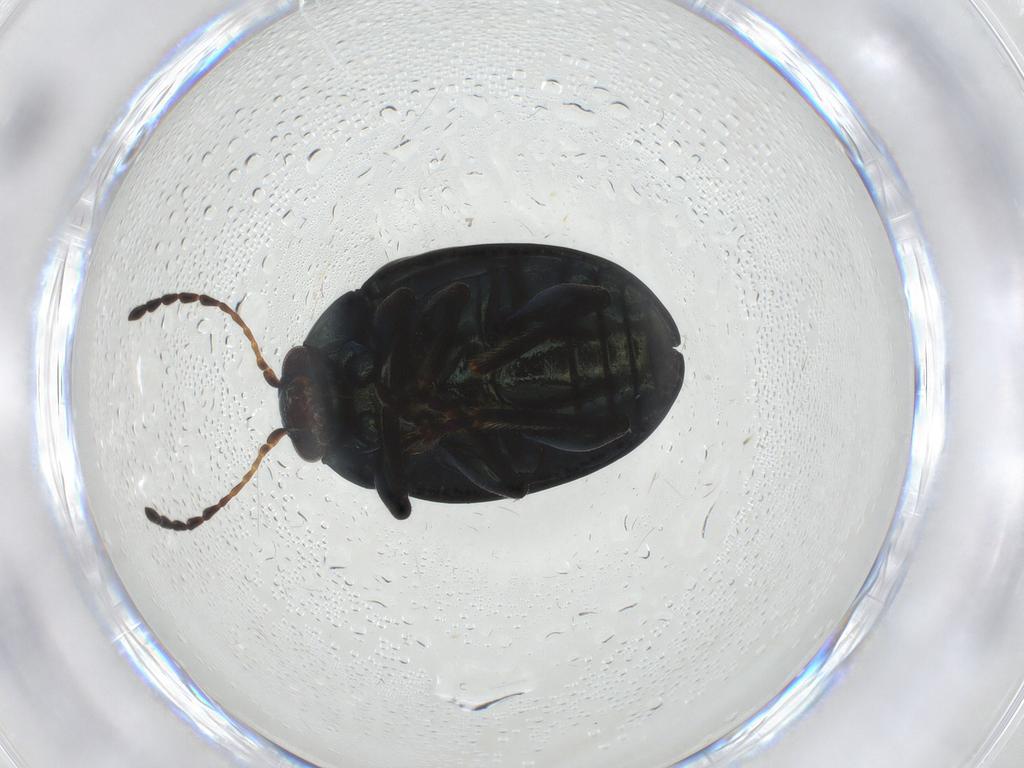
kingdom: Animalia
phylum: Arthropoda
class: Insecta
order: Coleoptera
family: Chrysomelidae
